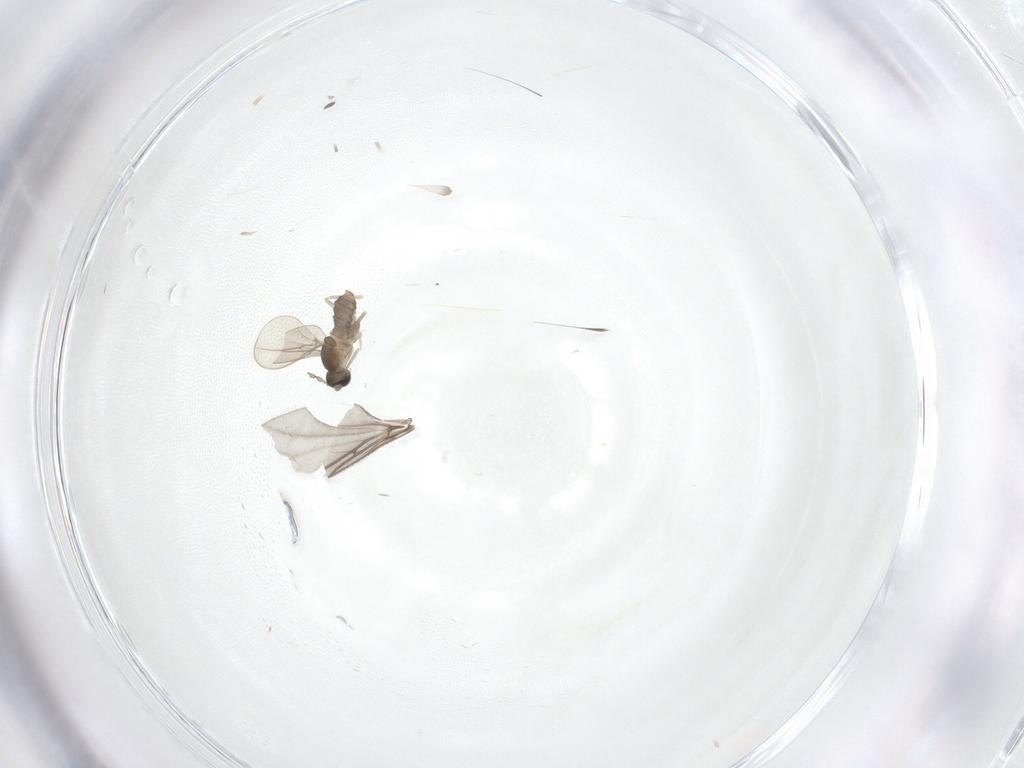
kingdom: Animalia
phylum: Arthropoda
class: Insecta
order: Diptera
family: Cecidomyiidae
